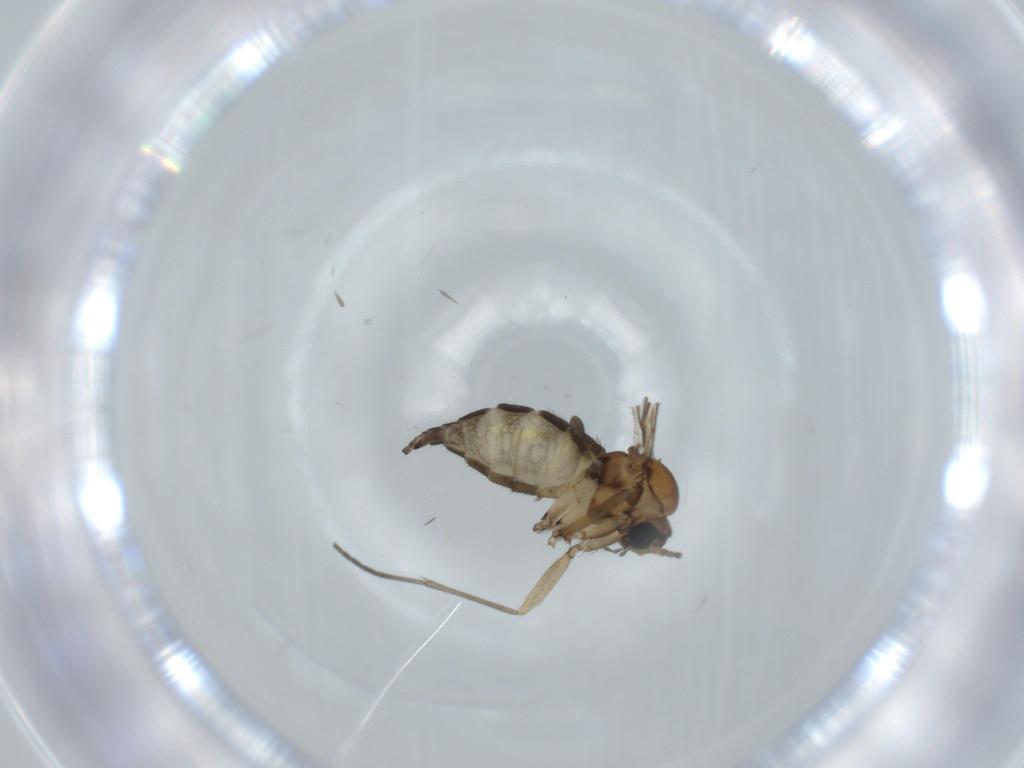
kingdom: Animalia
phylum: Arthropoda
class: Insecta
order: Diptera
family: Sciaridae
